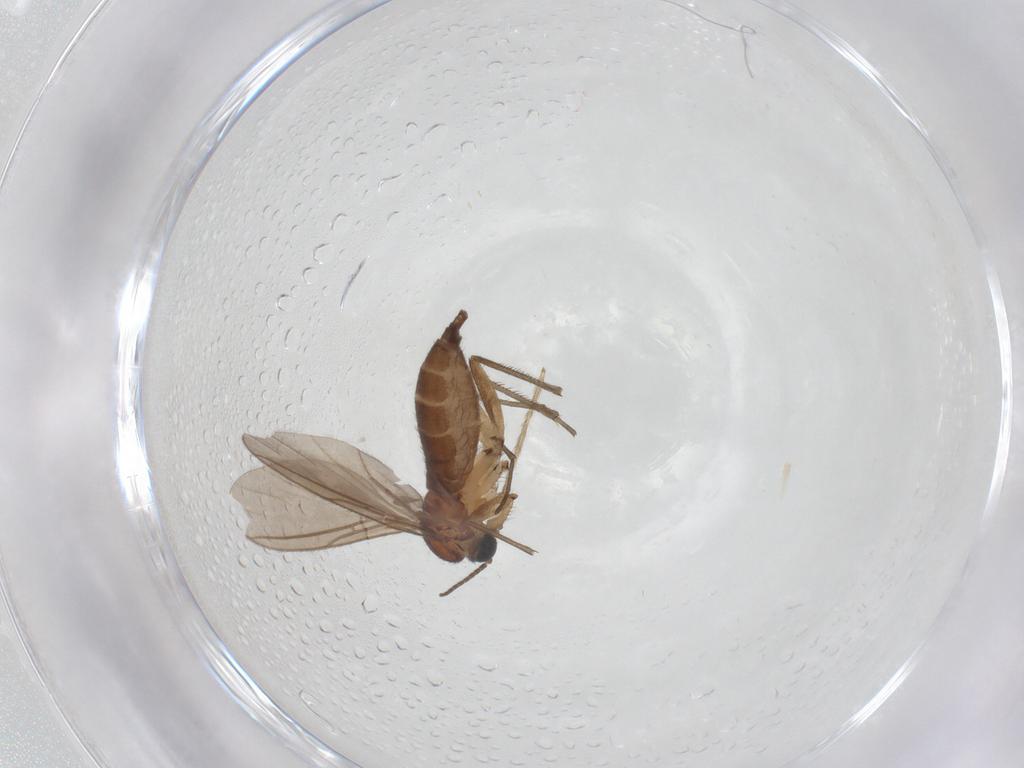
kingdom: Animalia
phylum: Arthropoda
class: Insecta
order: Diptera
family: Sciaridae
